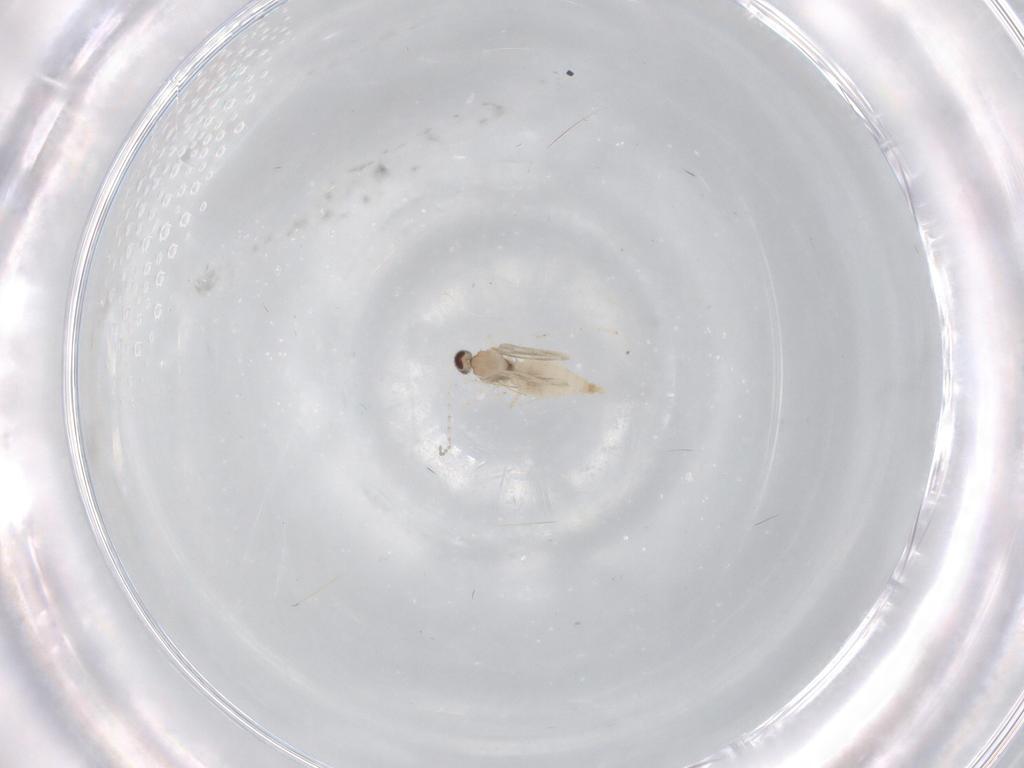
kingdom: Animalia
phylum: Arthropoda
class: Insecta
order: Diptera
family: Cecidomyiidae
